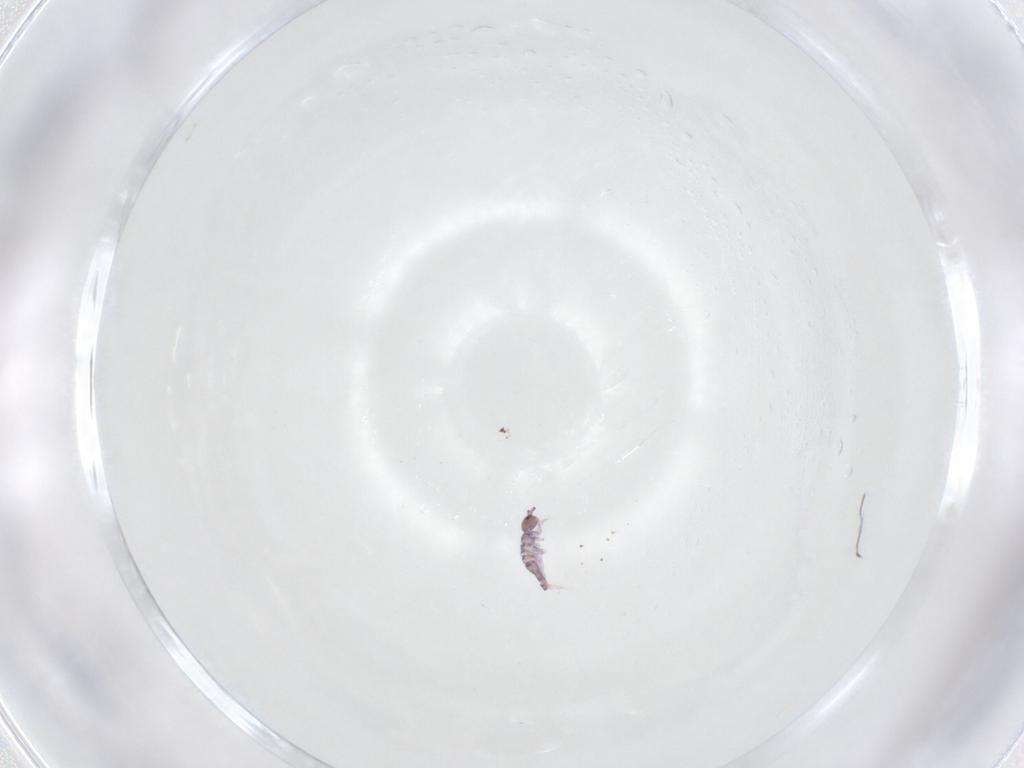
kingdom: Animalia
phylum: Arthropoda
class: Collembola
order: Entomobryomorpha
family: Entomobryidae
